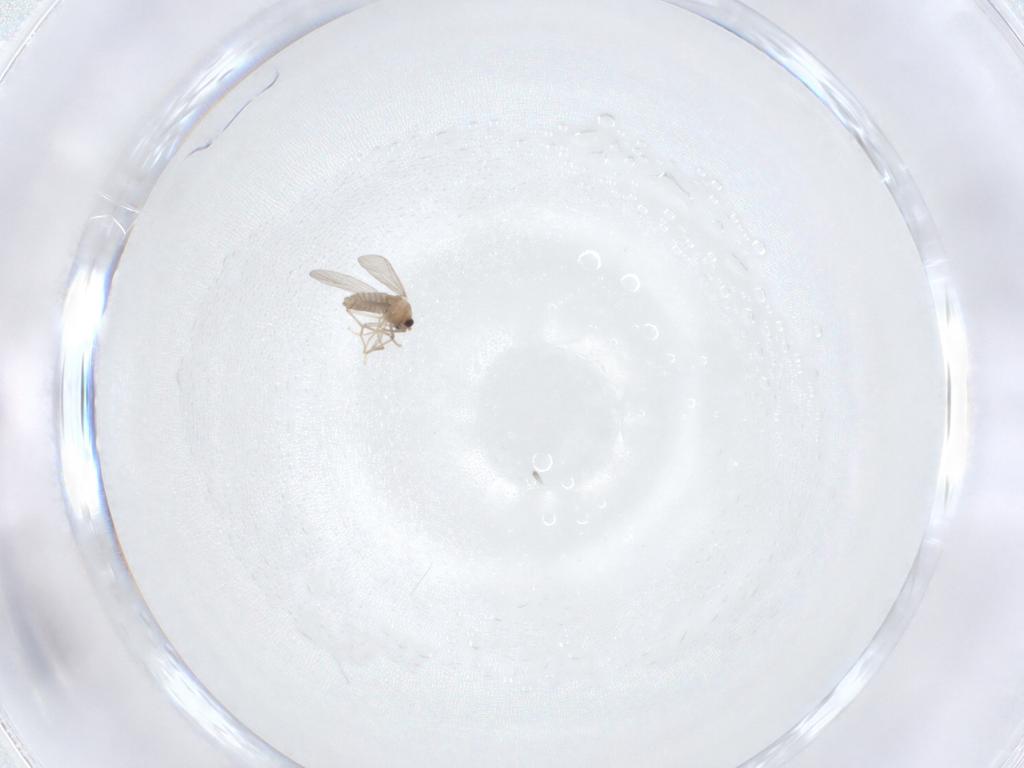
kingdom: Animalia
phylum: Arthropoda
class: Insecta
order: Diptera
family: Chironomidae
